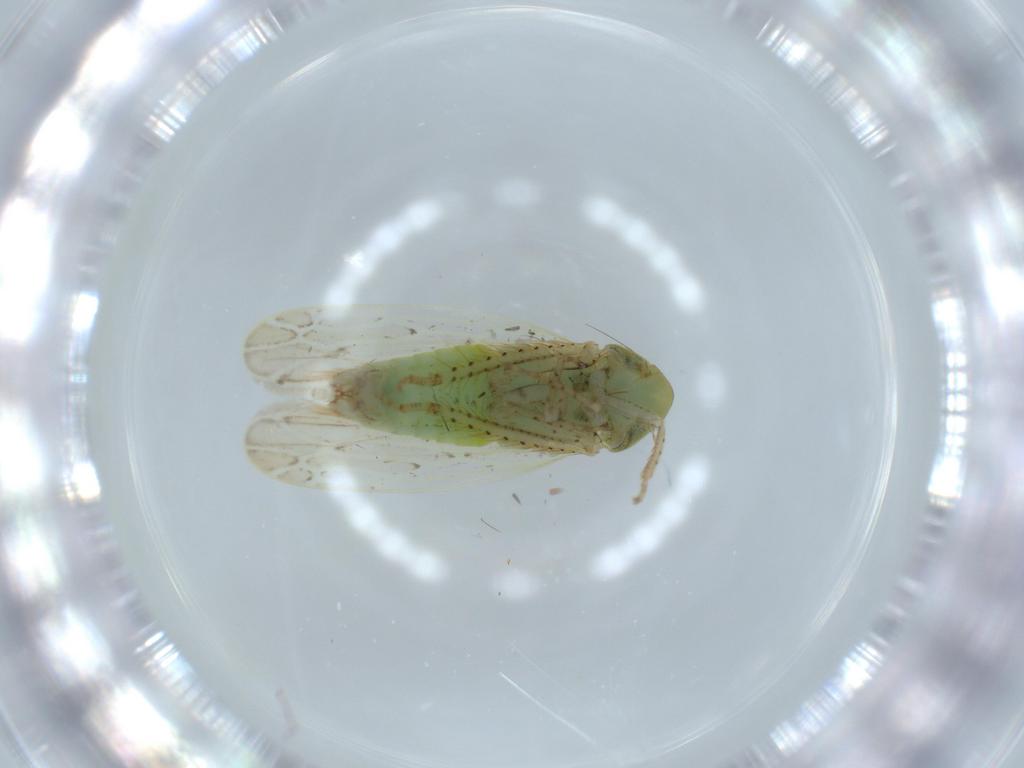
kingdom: Animalia
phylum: Arthropoda
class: Insecta
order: Hemiptera
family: Cicadellidae
